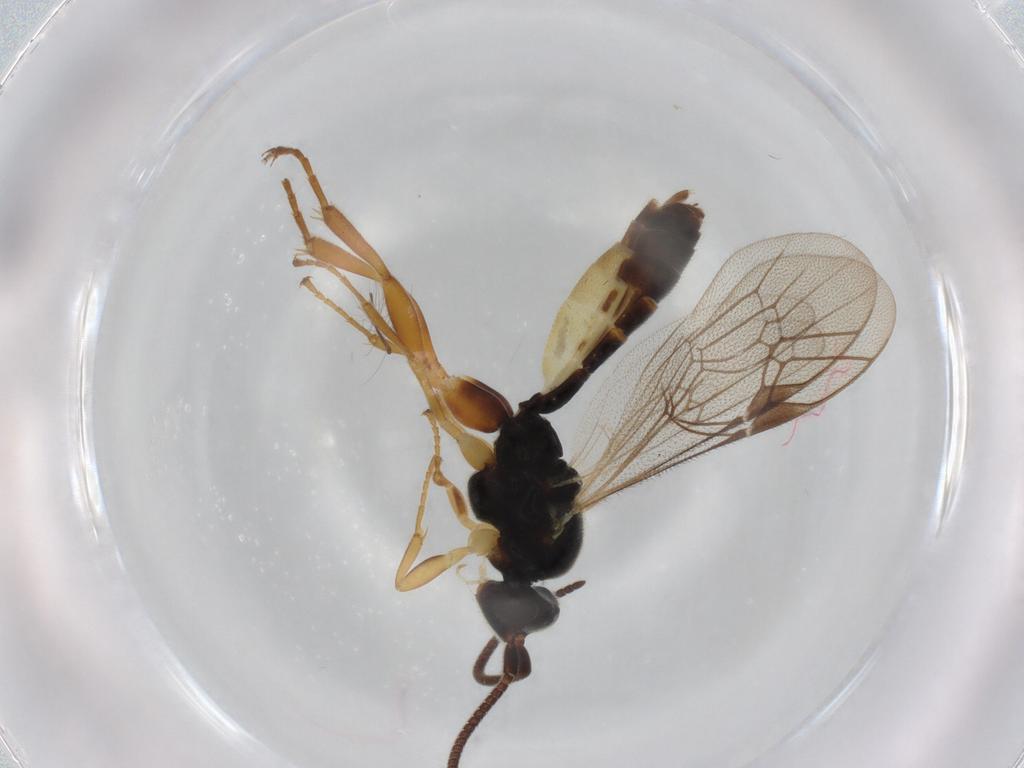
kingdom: Animalia
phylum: Arthropoda
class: Insecta
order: Hymenoptera
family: Ichneumonidae
